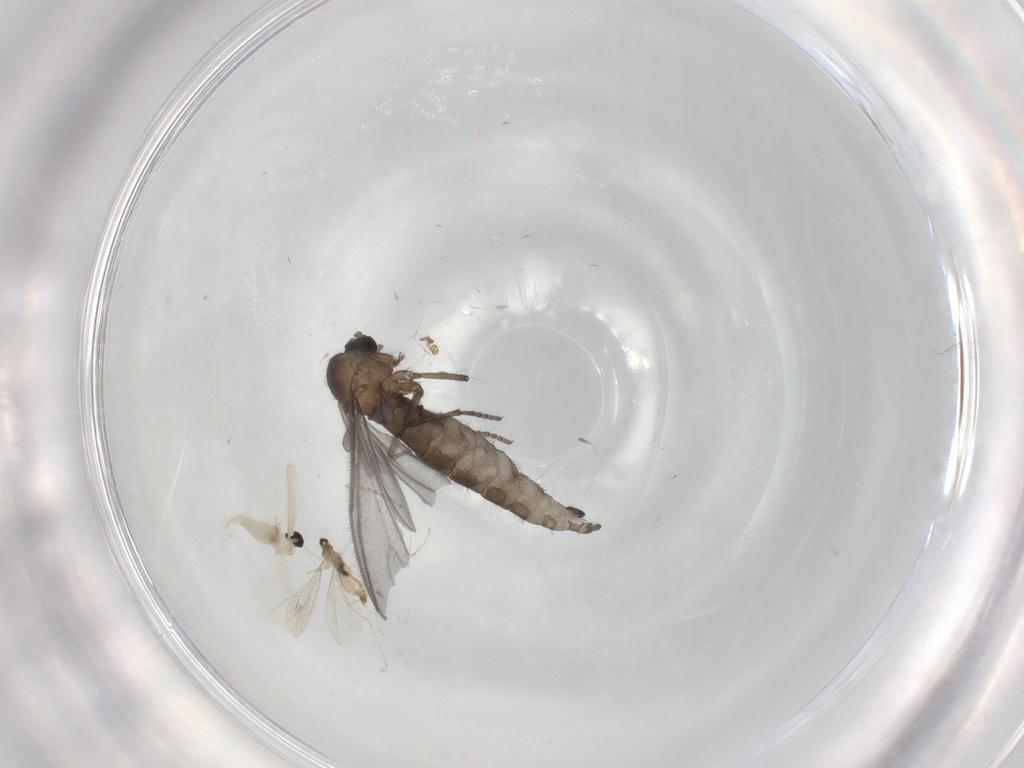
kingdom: Animalia
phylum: Arthropoda
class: Insecta
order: Diptera
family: Sciaridae
